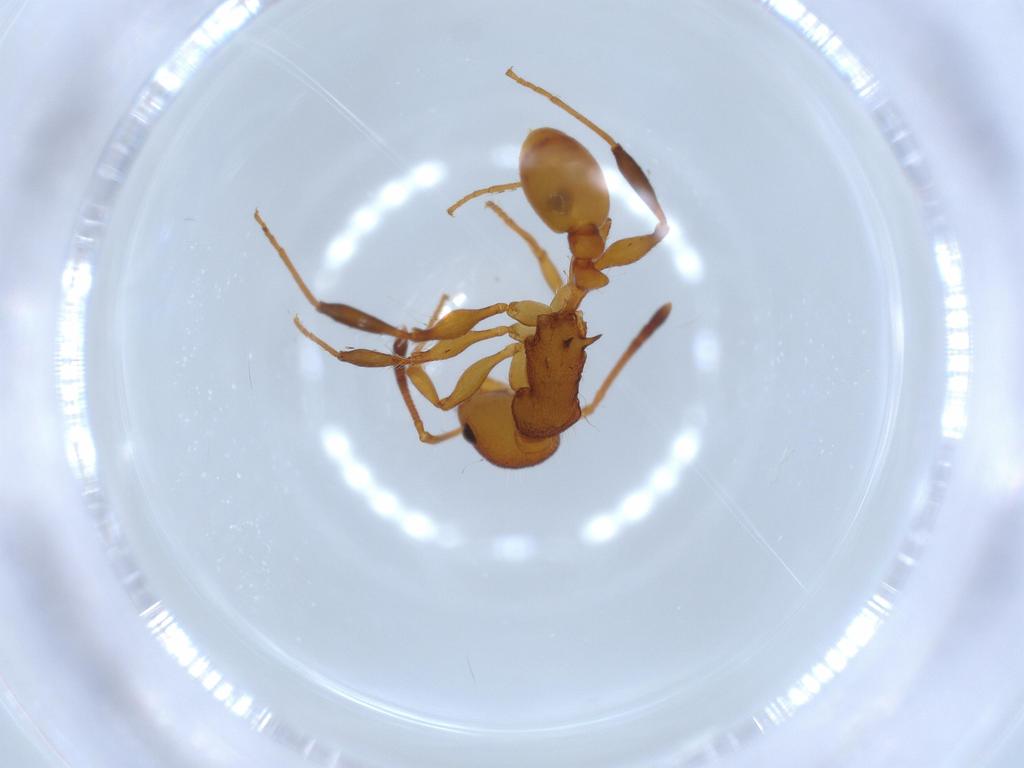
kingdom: Animalia
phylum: Arthropoda
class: Insecta
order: Hymenoptera
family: Formicidae
